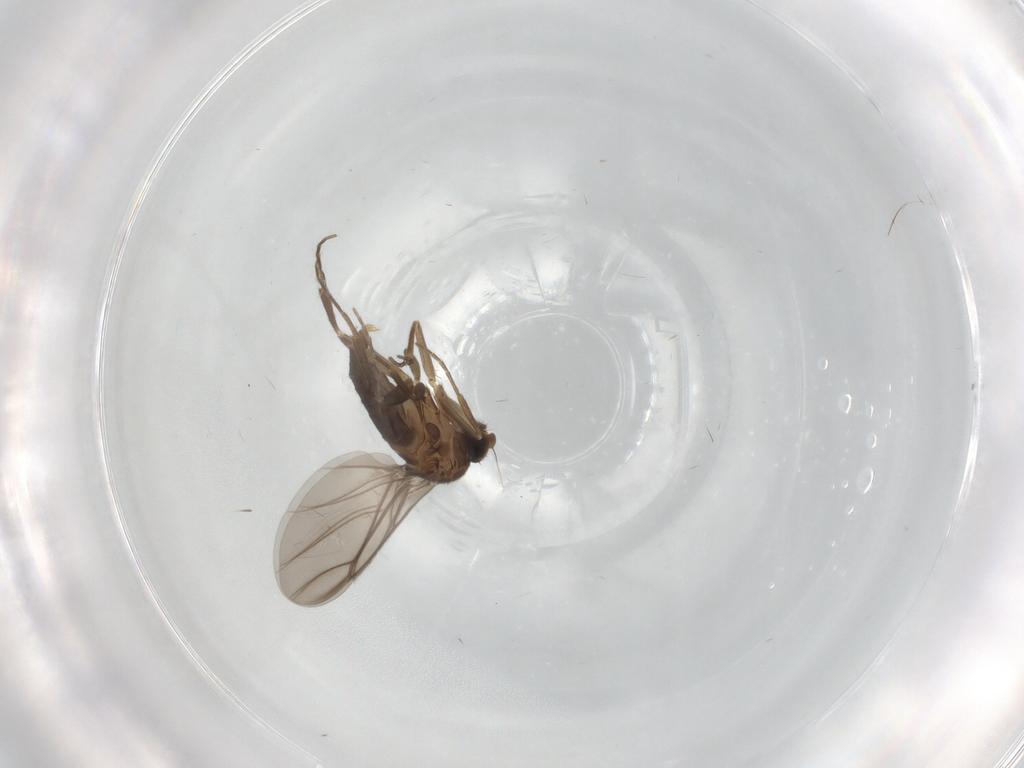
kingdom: Animalia
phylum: Arthropoda
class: Insecta
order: Diptera
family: Phoridae
